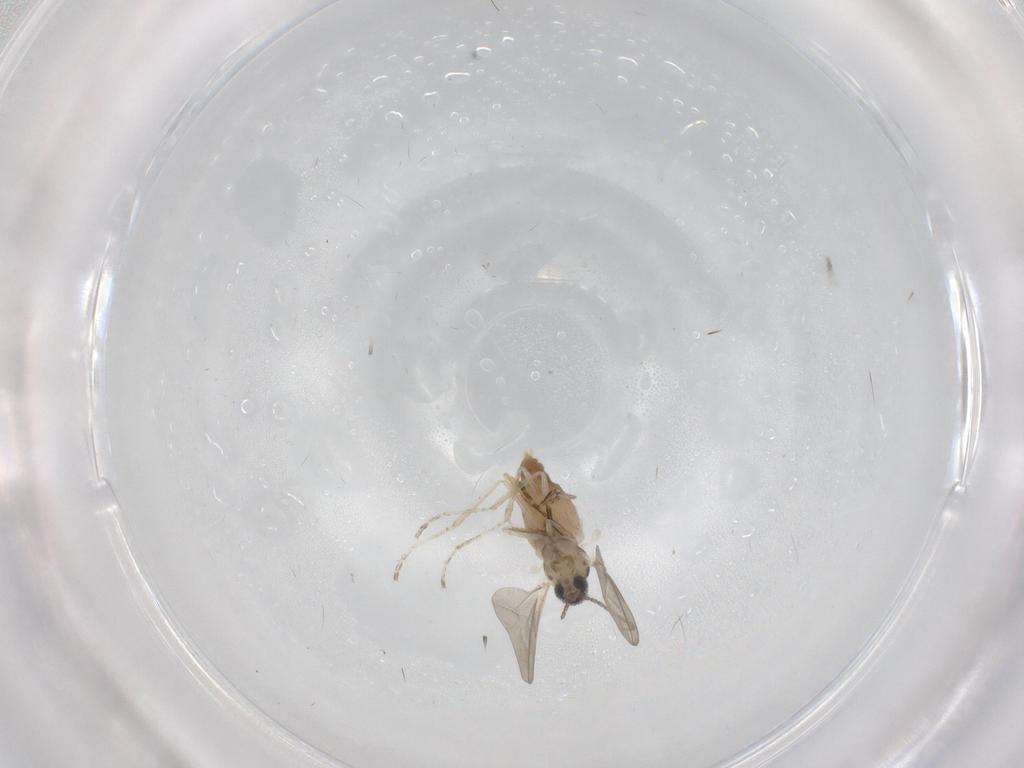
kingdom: Animalia
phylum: Arthropoda
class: Insecta
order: Diptera
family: Cecidomyiidae
